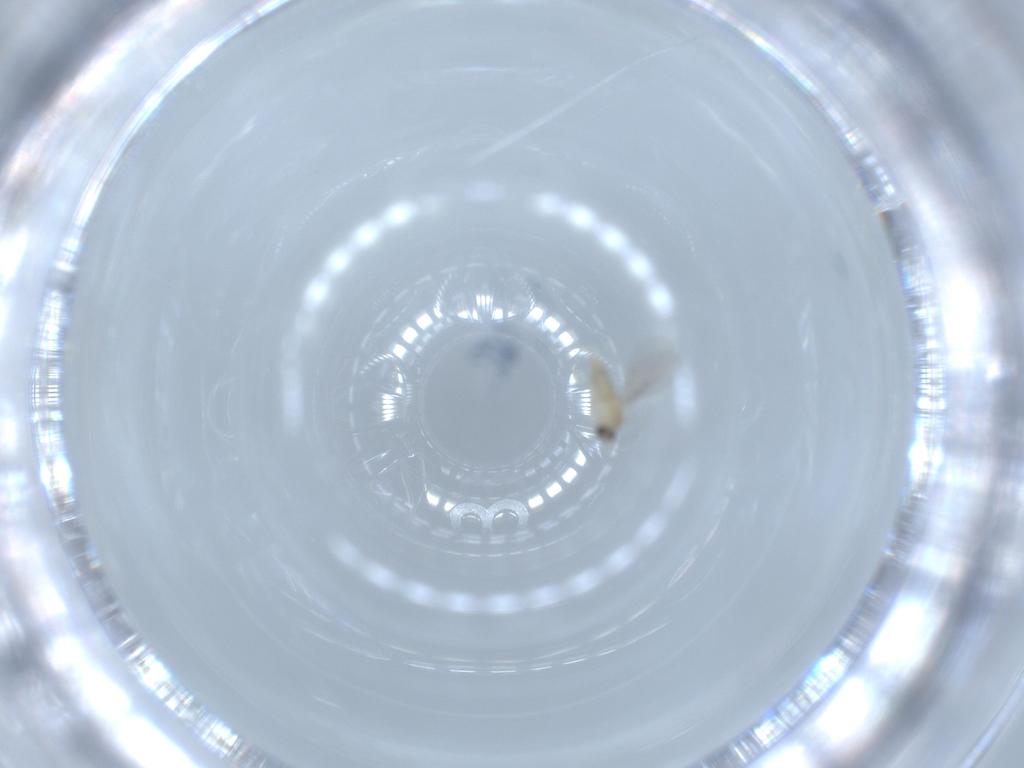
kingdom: Animalia
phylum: Arthropoda
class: Insecta
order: Diptera
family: Cecidomyiidae
